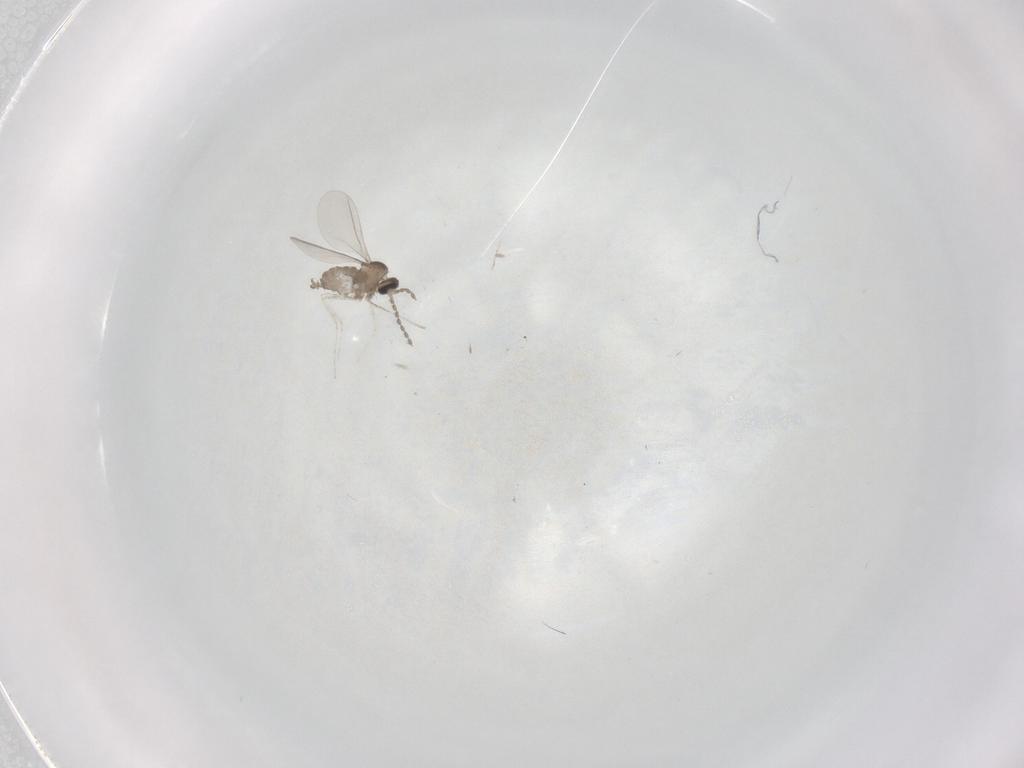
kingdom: Animalia
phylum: Arthropoda
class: Insecta
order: Diptera
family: Cecidomyiidae
